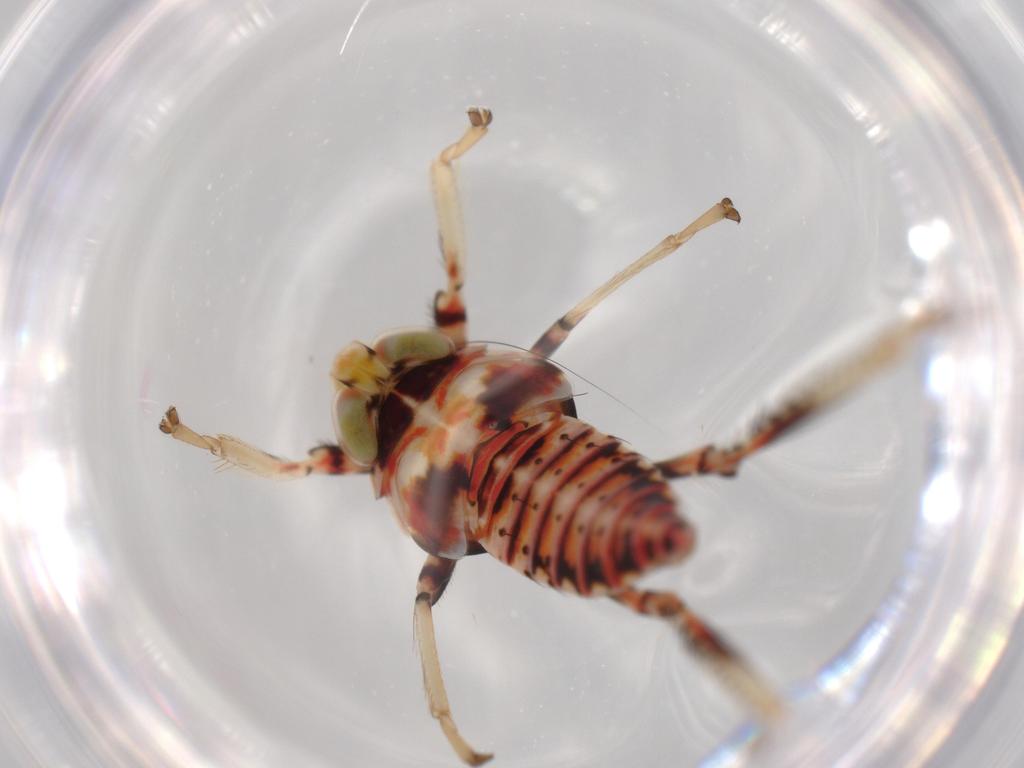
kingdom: Animalia
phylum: Arthropoda
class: Insecta
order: Hemiptera
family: Cicadellidae
